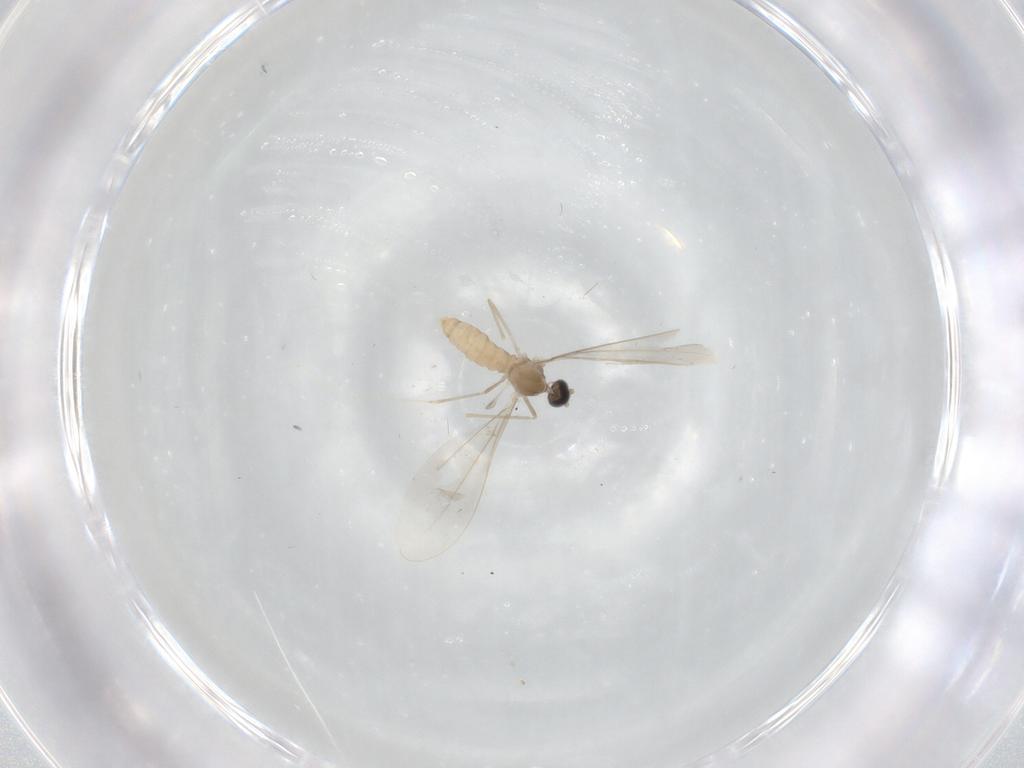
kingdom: Animalia
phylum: Arthropoda
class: Insecta
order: Diptera
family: Cecidomyiidae
